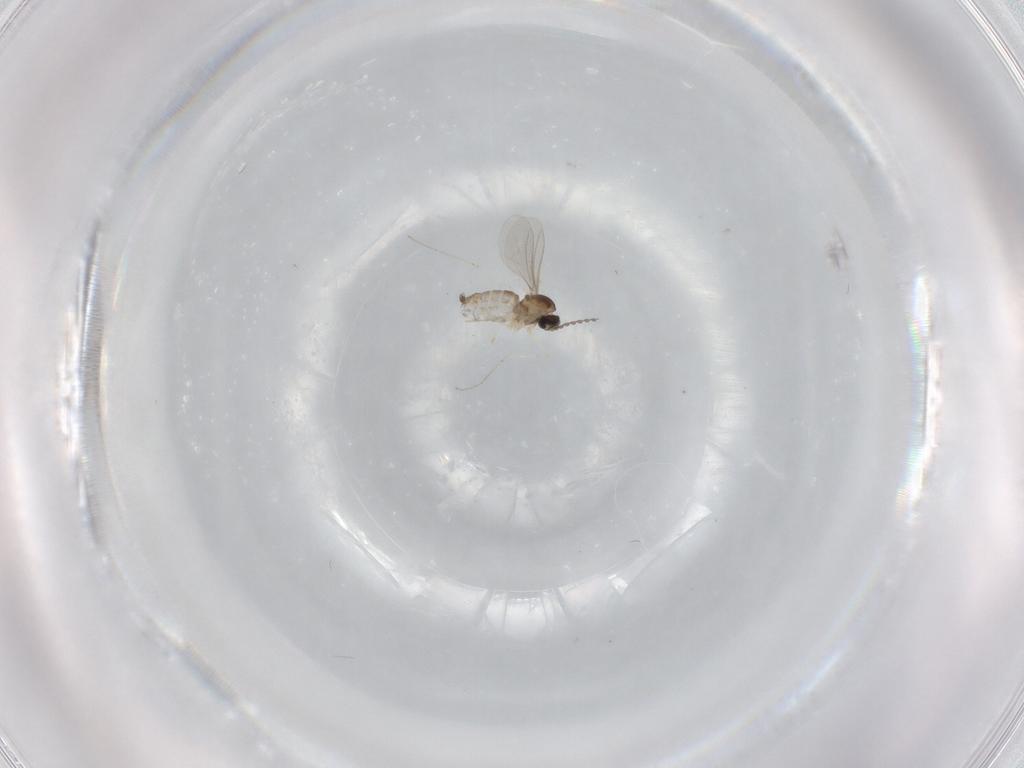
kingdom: Animalia
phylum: Arthropoda
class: Insecta
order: Diptera
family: Cecidomyiidae
